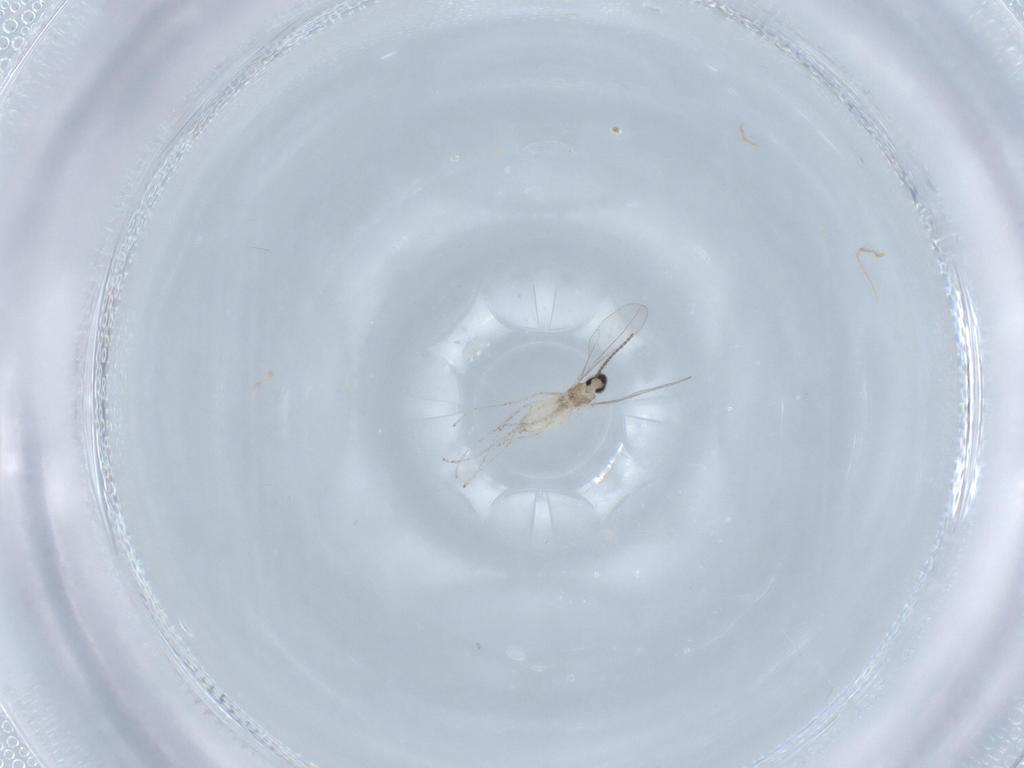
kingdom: Animalia
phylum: Arthropoda
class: Insecta
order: Diptera
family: Cecidomyiidae
